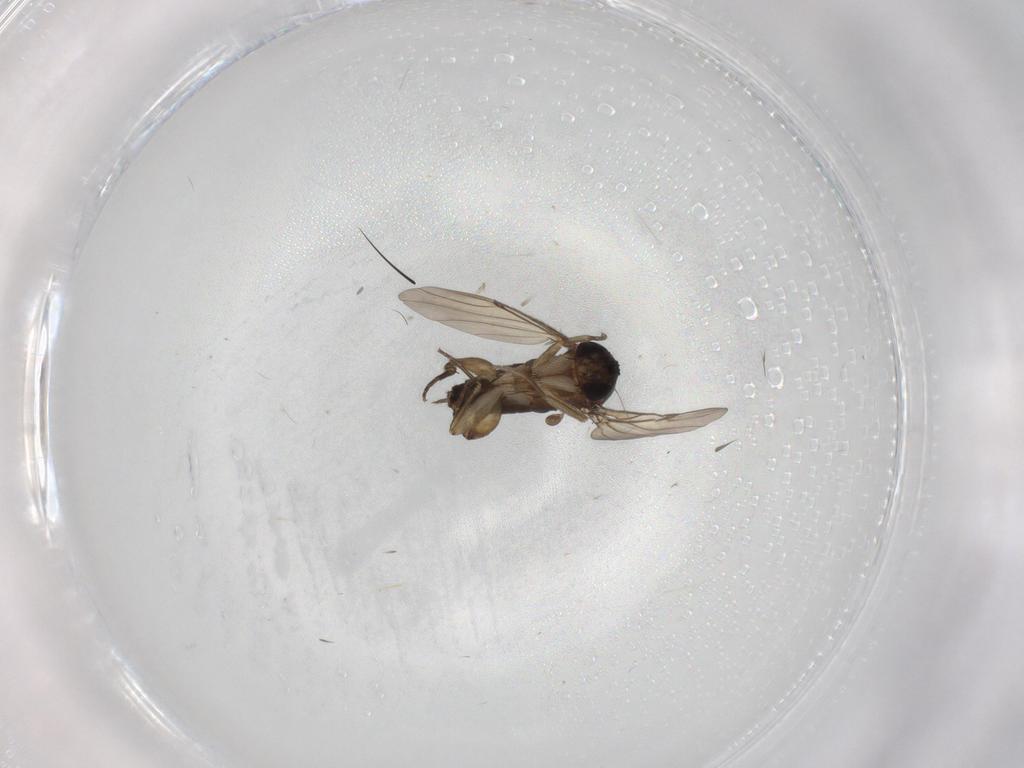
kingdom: Animalia
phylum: Arthropoda
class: Insecta
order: Diptera
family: Phoridae
